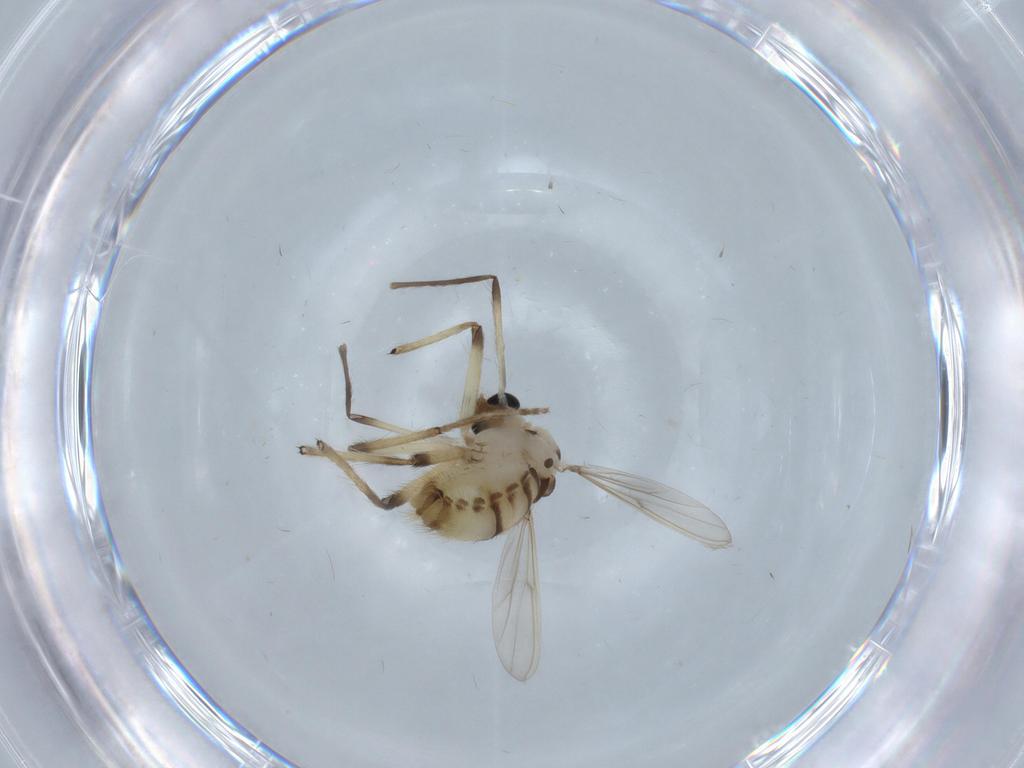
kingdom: Animalia
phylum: Arthropoda
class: Insecta
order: Diptera
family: Chironomidae
